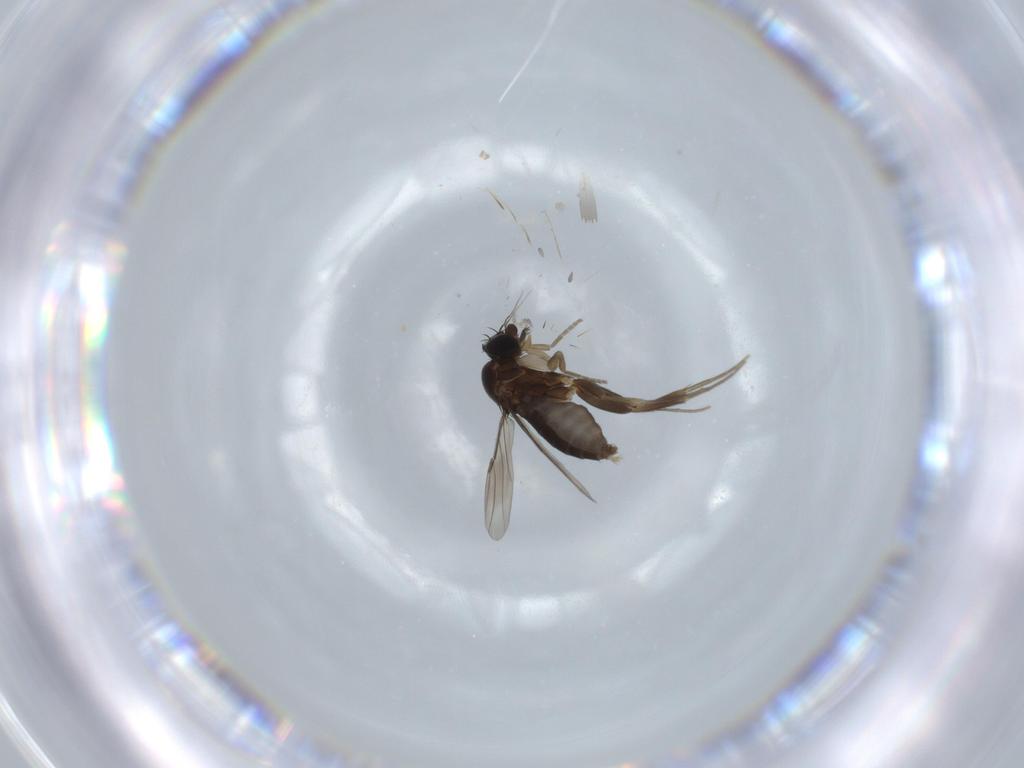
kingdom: Animalia
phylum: Arthropoda
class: Insecta
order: Diptera
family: Phoridae
